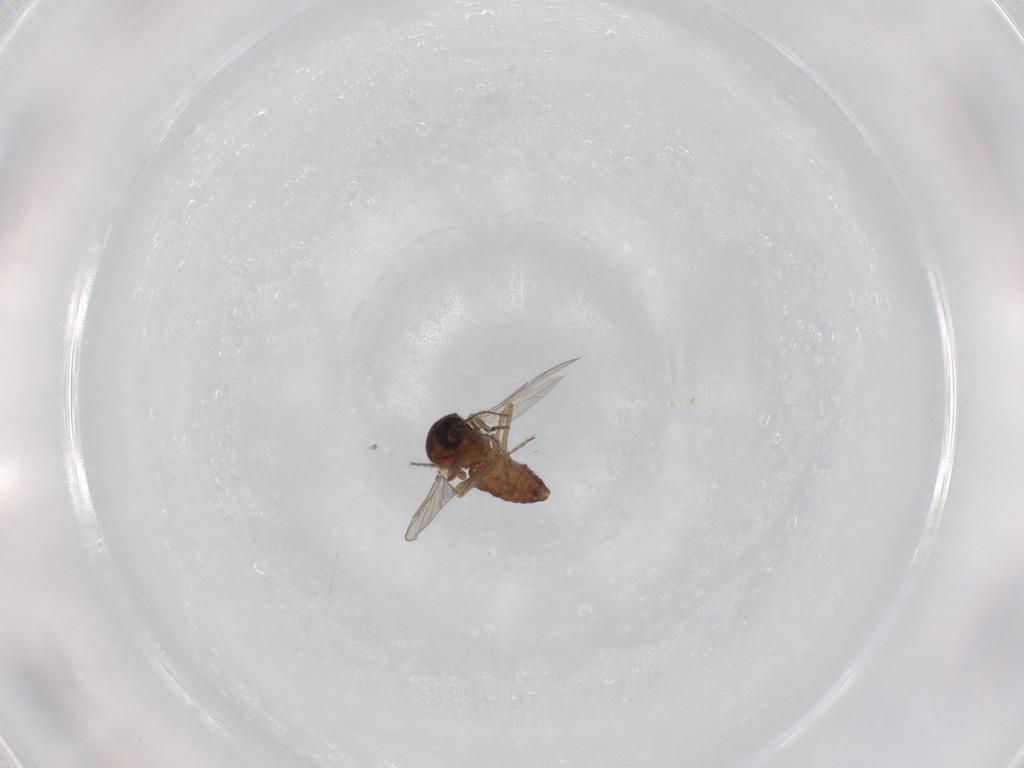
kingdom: Animalia
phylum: Arthropoda
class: Insecta
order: Diptera
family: Ceratopogonidae
